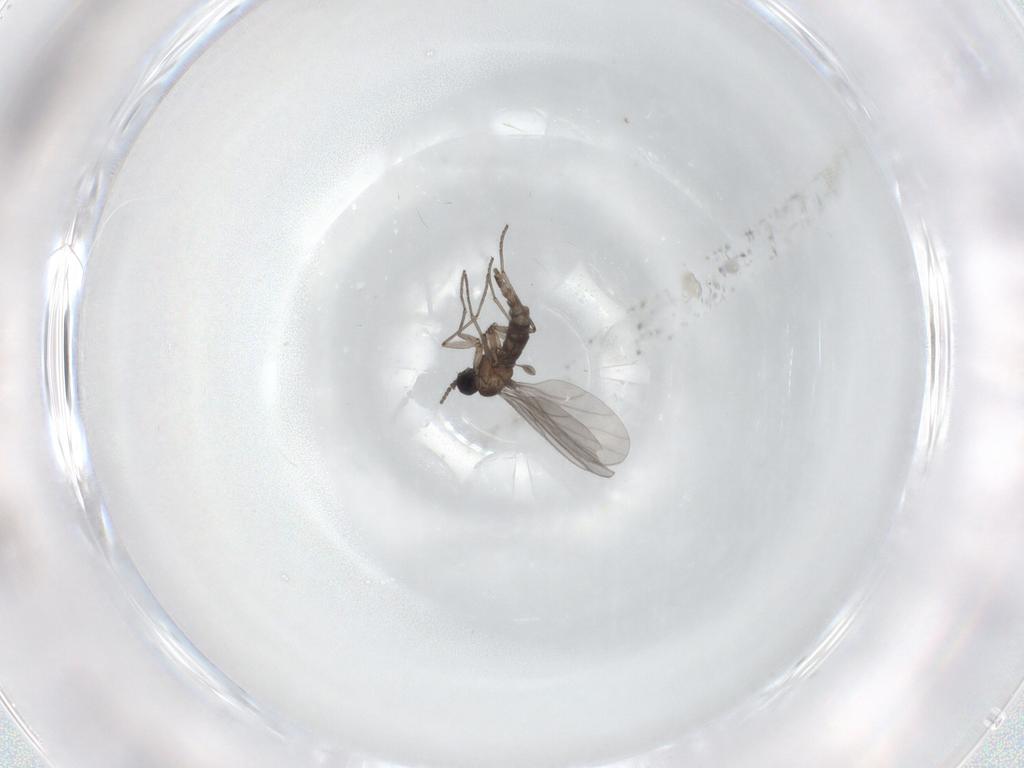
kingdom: Animalia
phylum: Arthropoda
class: Insecta
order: Diptera
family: Chironomidae
